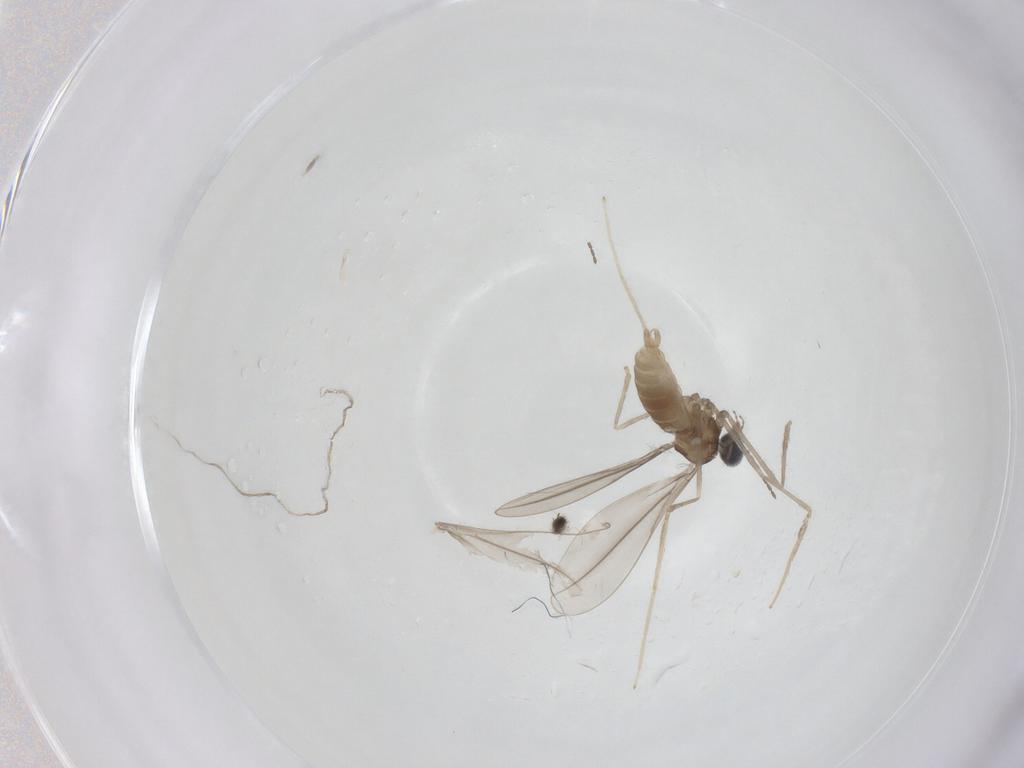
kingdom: Animalia
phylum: Arthropoda
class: Insecta
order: Diptera
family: Cecidomyiidae
